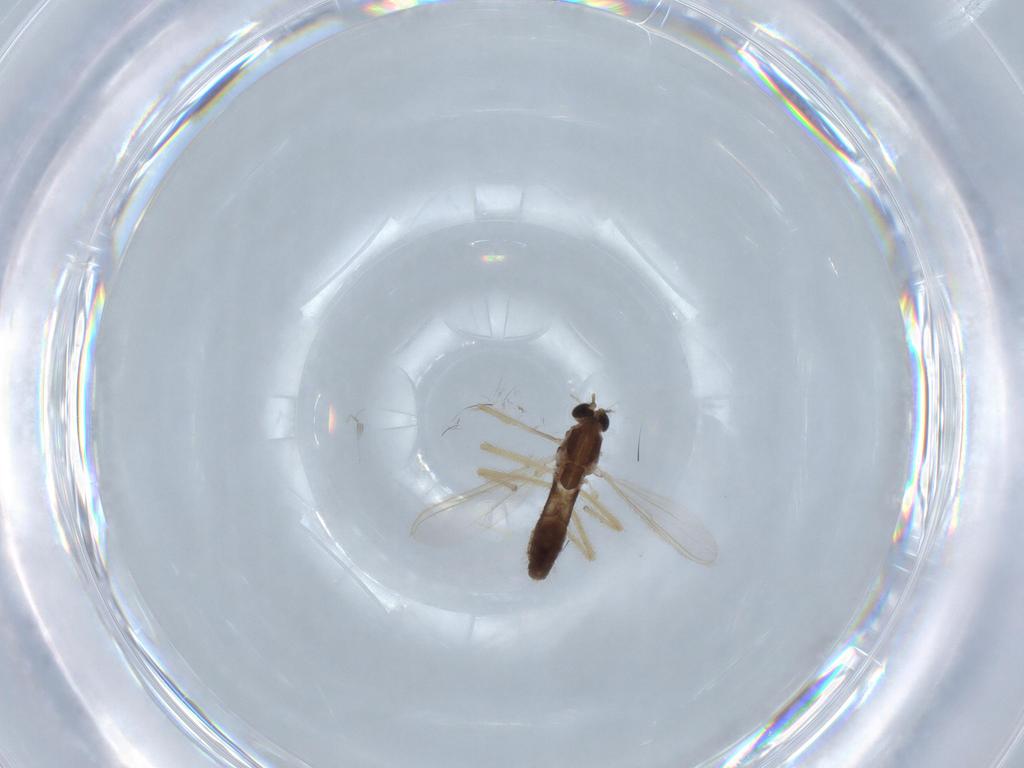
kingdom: Animalia
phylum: Arthropoda
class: Insecta
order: Diptera
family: Chironomidae
